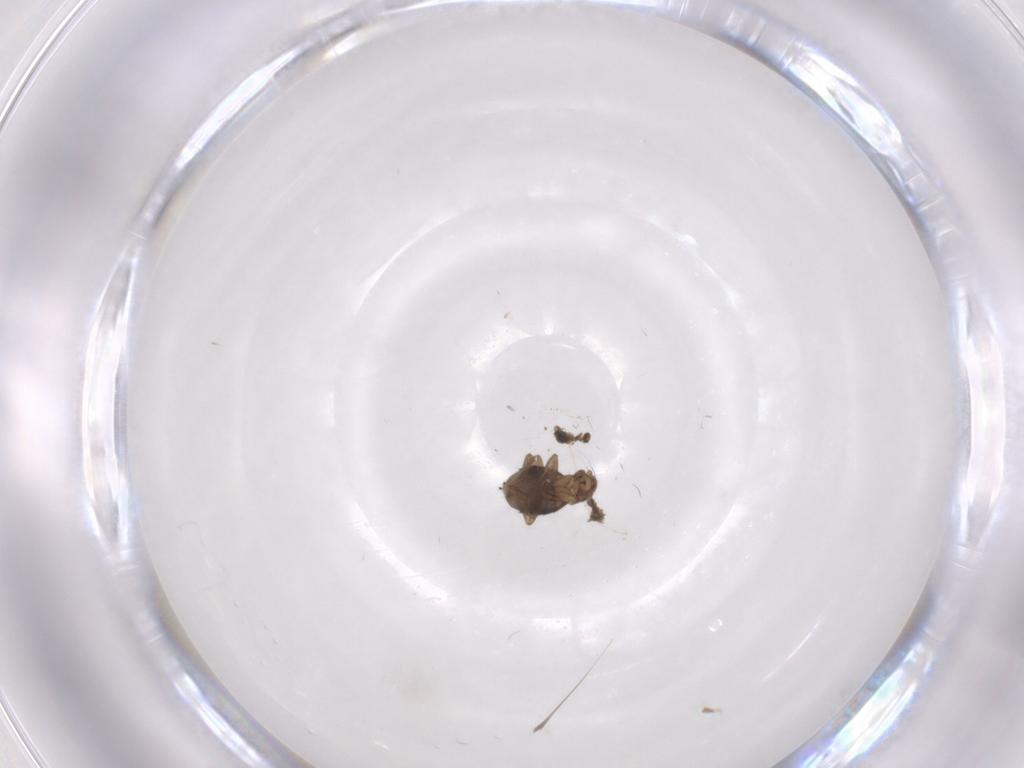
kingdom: Animalia
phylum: Arthropoda
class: Insecta
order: Diptera
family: Phoridae
